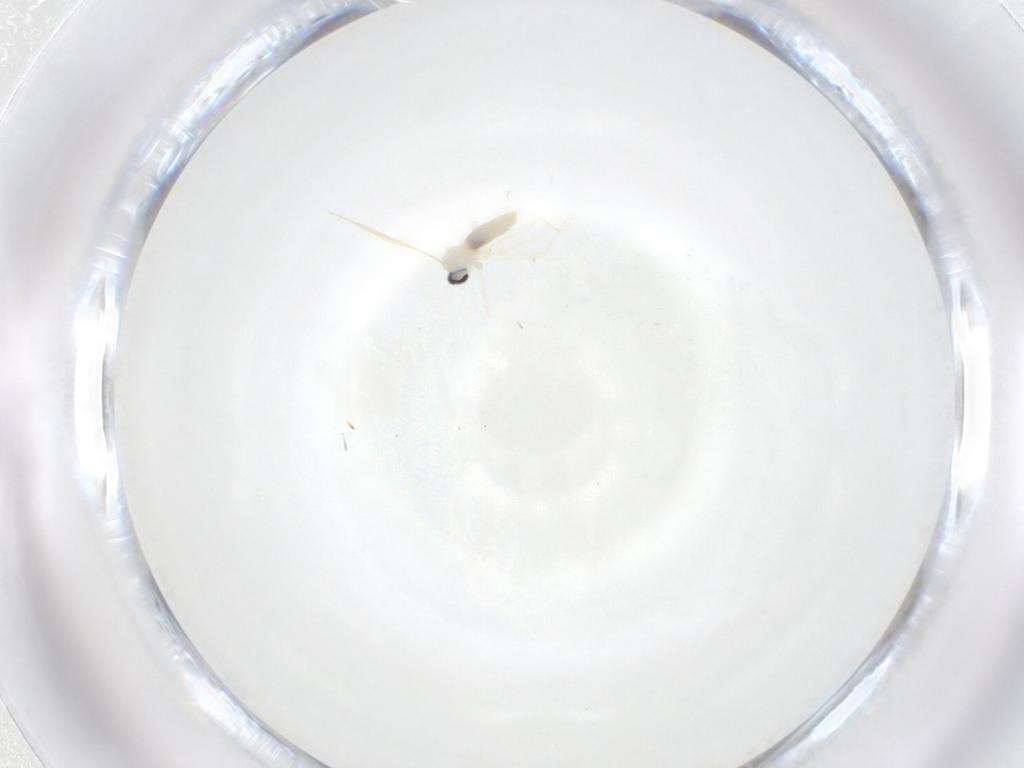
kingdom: Animalia
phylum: Arthropoda
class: Insecta
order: Diptera
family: Cecidomyiidae
